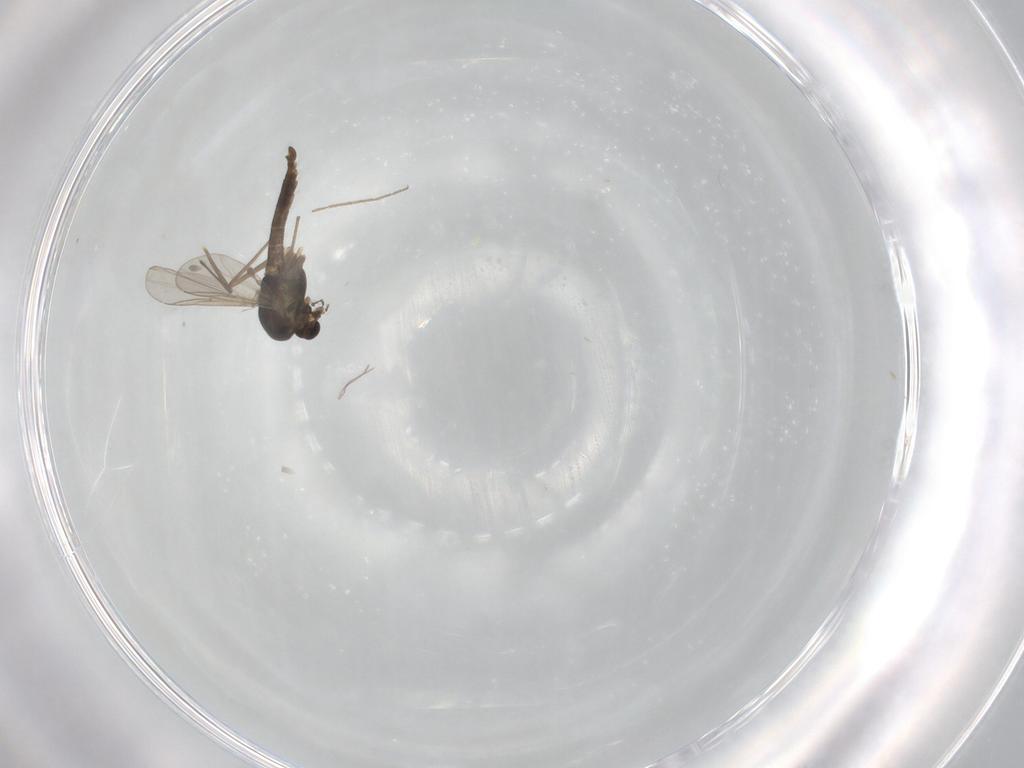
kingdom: Animalia
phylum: Arthropoda
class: Insecta
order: Diptera
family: Chironomidae
